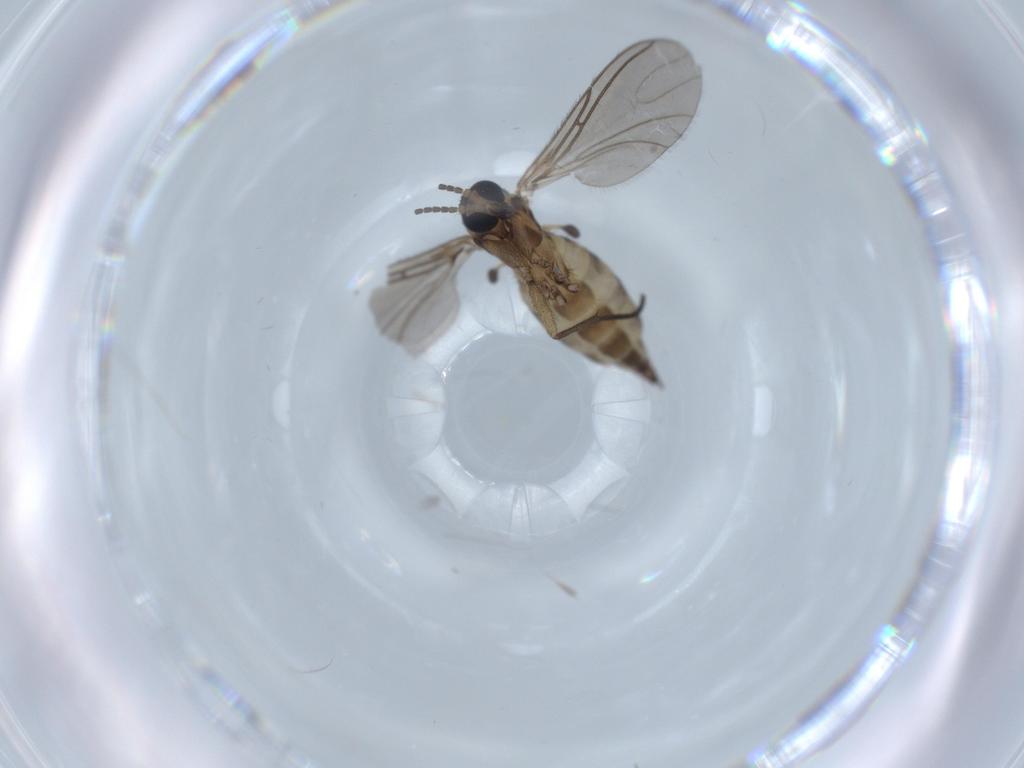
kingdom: Animalia
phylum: Arthropoda
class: Insecta
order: Diptera
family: Sciaridae
